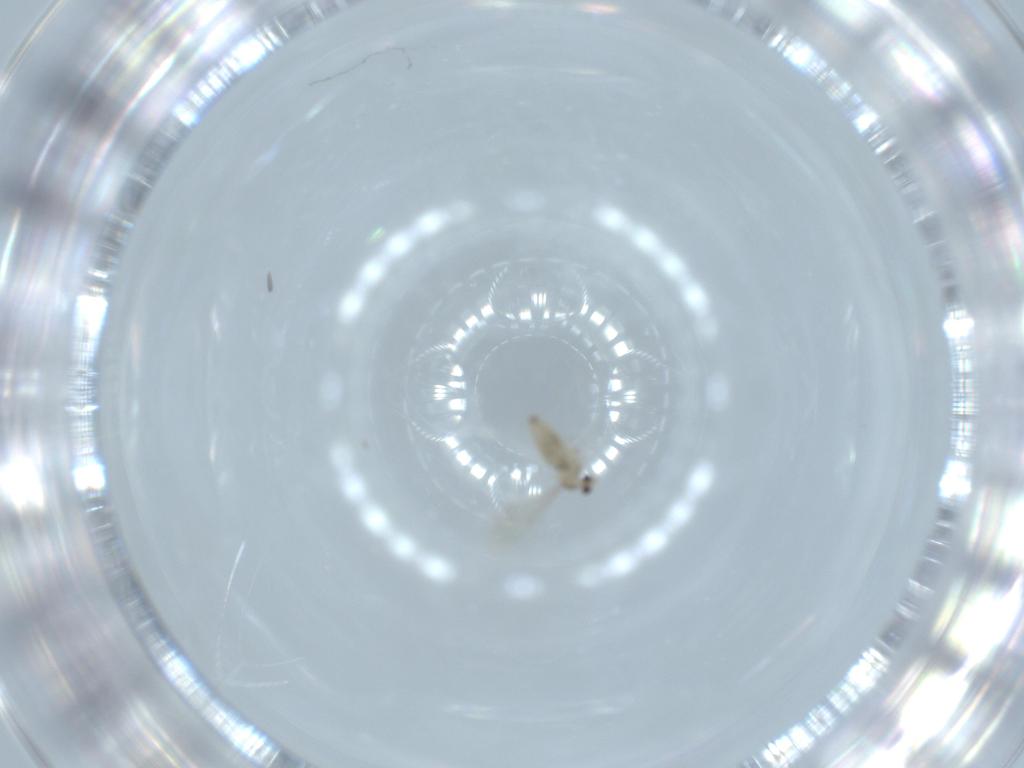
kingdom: Animalia
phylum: Arthropoda
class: Insecta
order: Diptera
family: Cecidomyiidae
